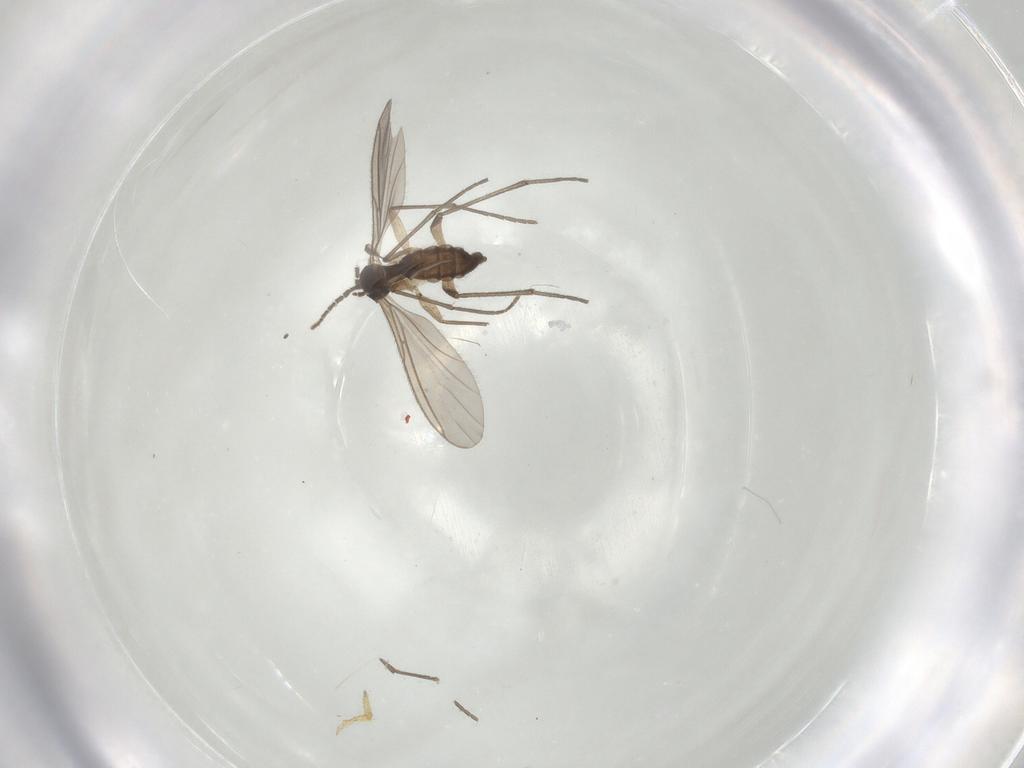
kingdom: Animalia
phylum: Arthropoda
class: Insecta
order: Diptera
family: Sciaridae
